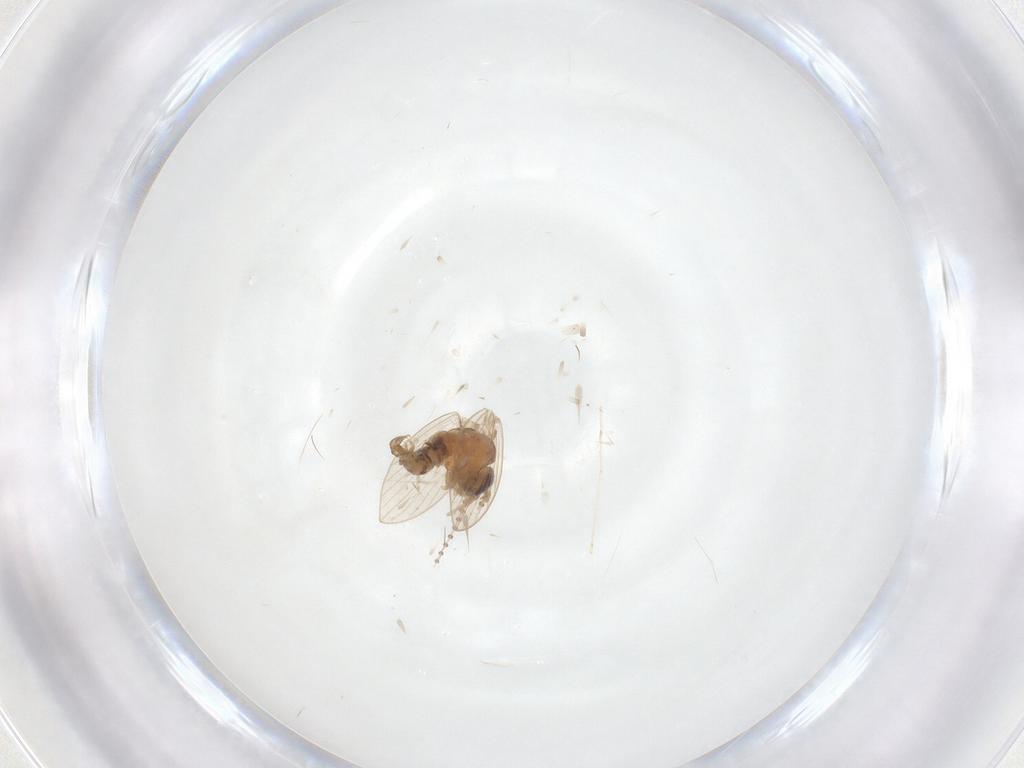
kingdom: Animalia
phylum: Arthropoda
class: Insecta
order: Diptera
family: Psychodidae
